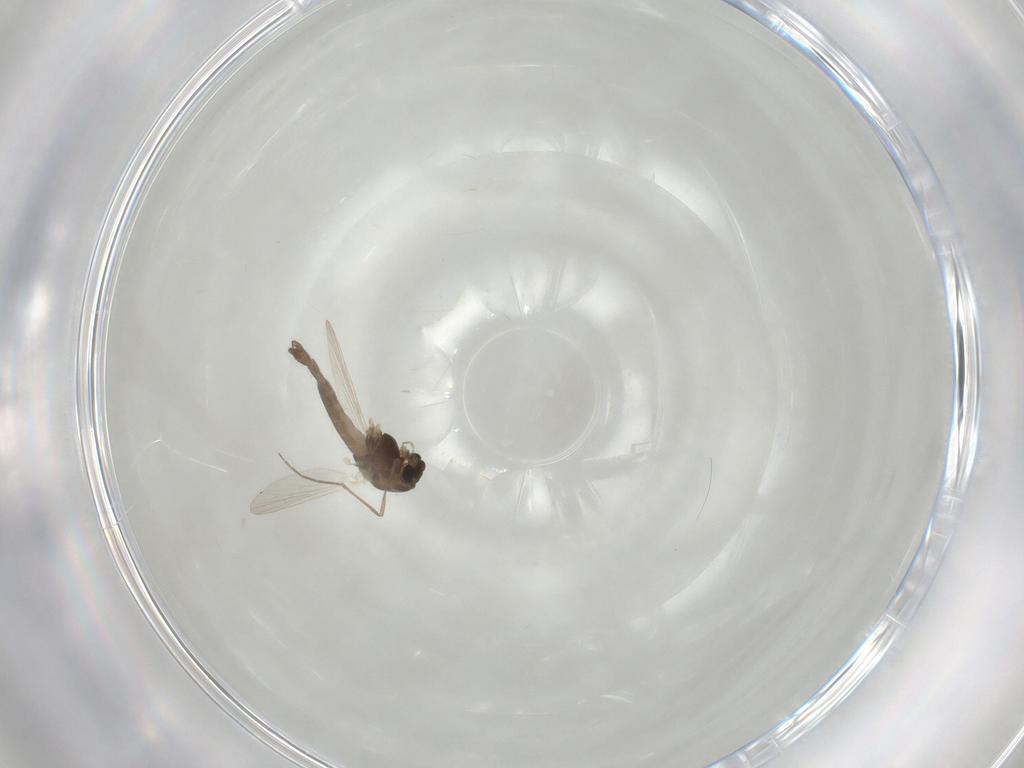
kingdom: Animalia
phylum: Arthropoda
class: Insecta
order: Diptera
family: Chironomidae
